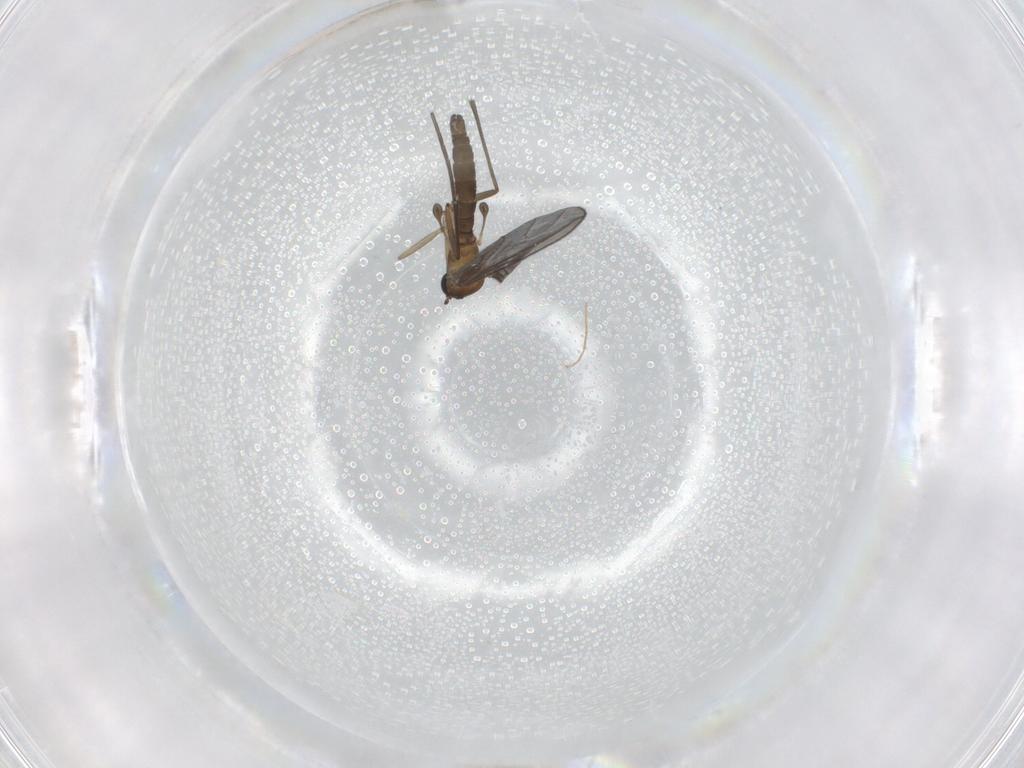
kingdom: Animalia
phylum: Arthropoda
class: Insecta
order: Diptera
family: Sciaridae
